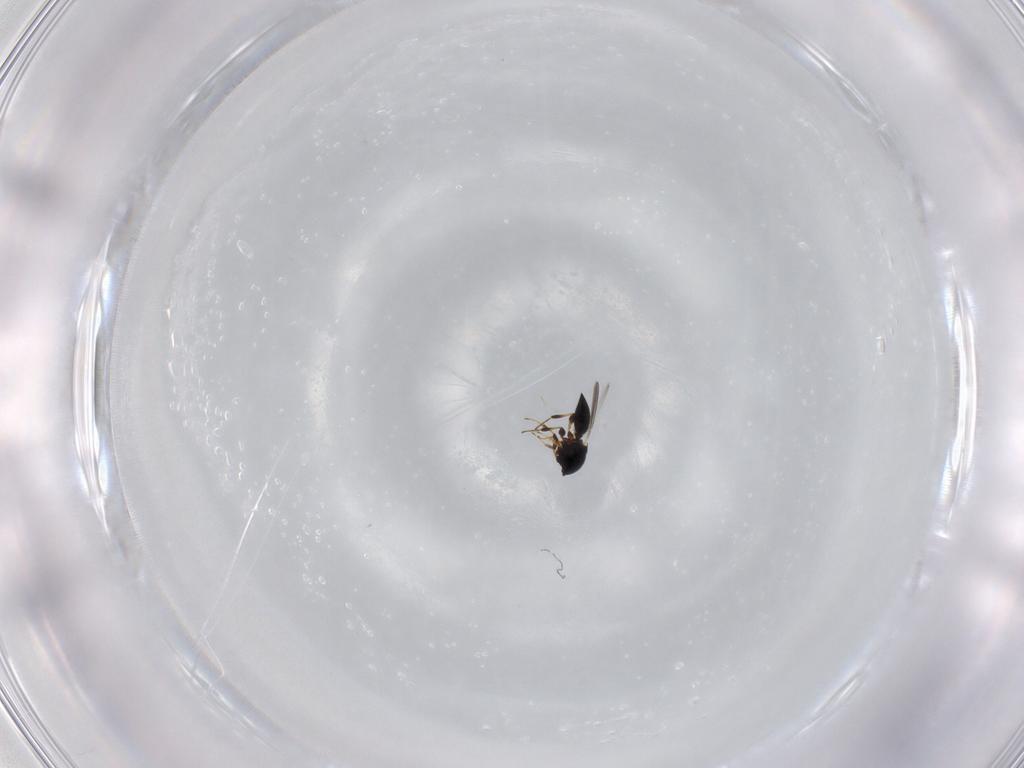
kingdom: Animalia
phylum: Arthropoda
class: Insecta
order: Hymenoptera
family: Platygastridae
